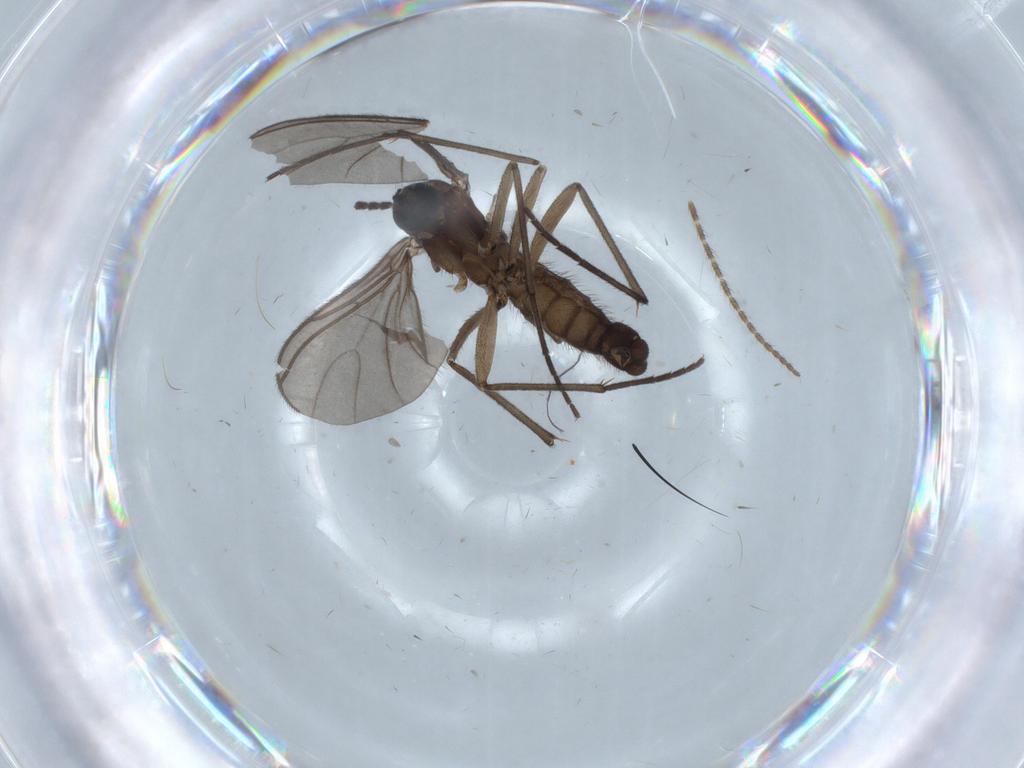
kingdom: Animalia
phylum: Arthropoda
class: Insecta
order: Diptera
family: Sciaridae
